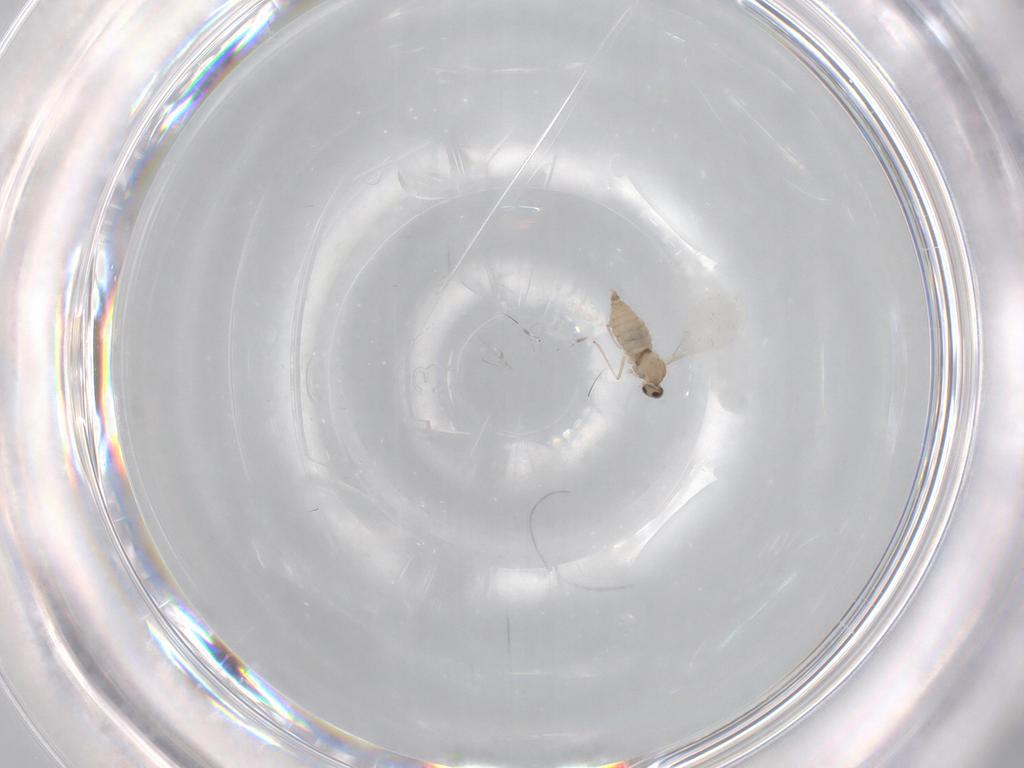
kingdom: Animalia
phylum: Arthropoda
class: Insecta
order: Diptera
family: Cecidomyiidae
